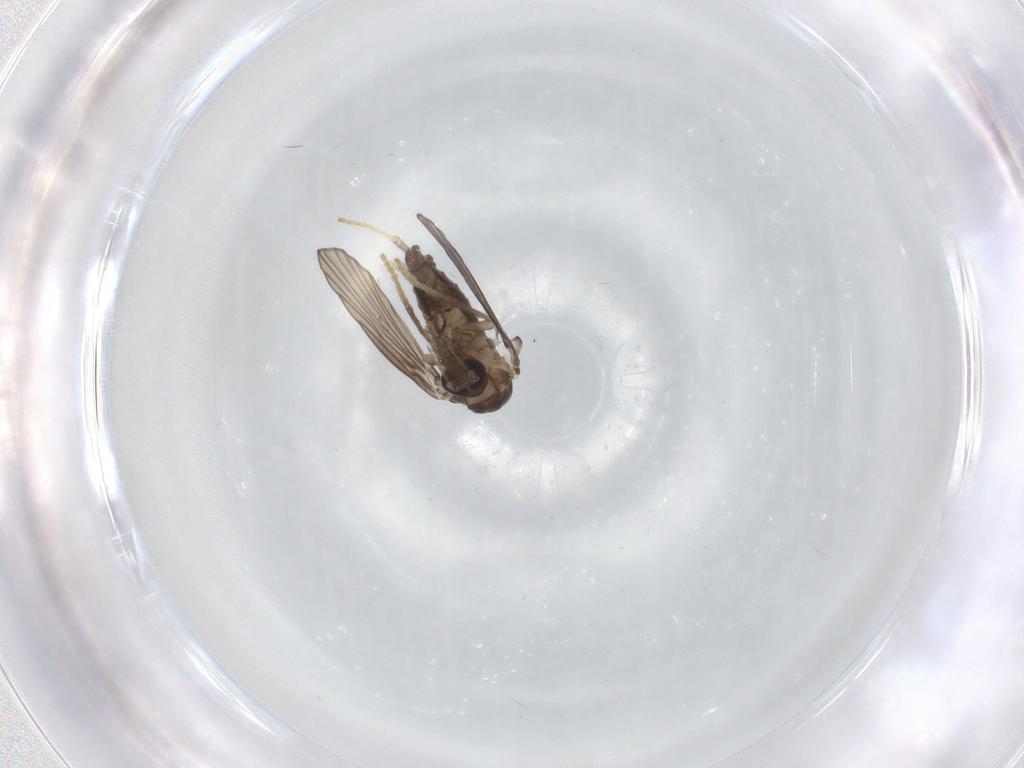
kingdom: Animalia
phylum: Arthropoda
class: Insecta
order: Diptera
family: Psychodidae
